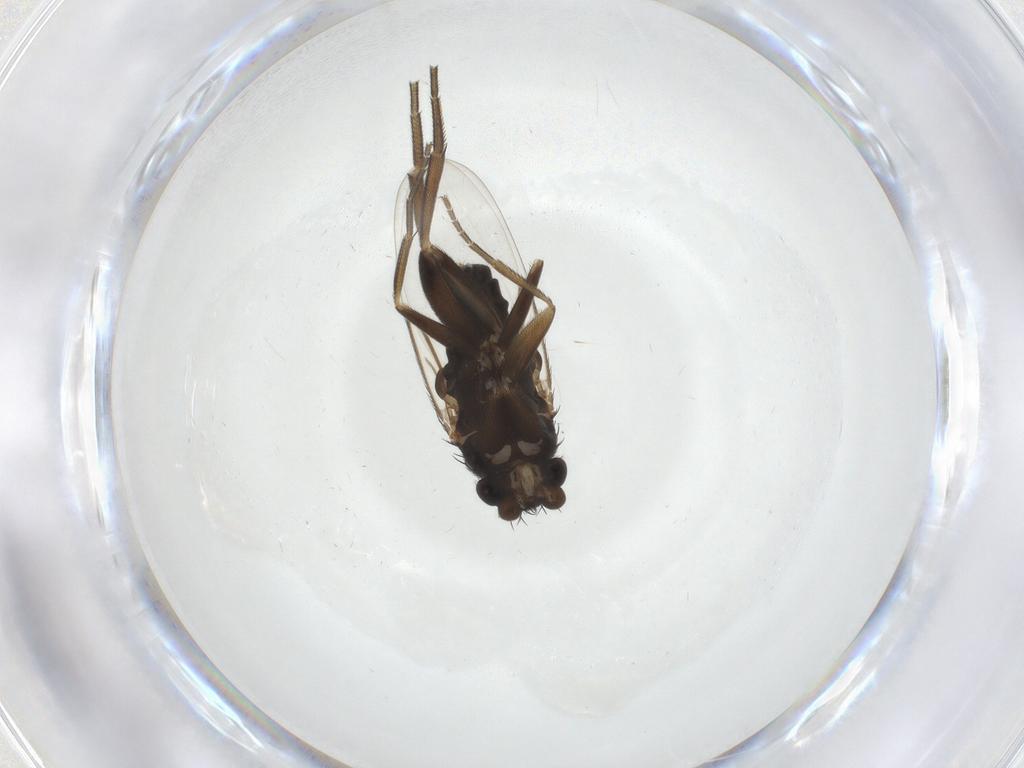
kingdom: Animalia
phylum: Arthropoda
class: Insecta
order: Diptera
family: Phoridae
